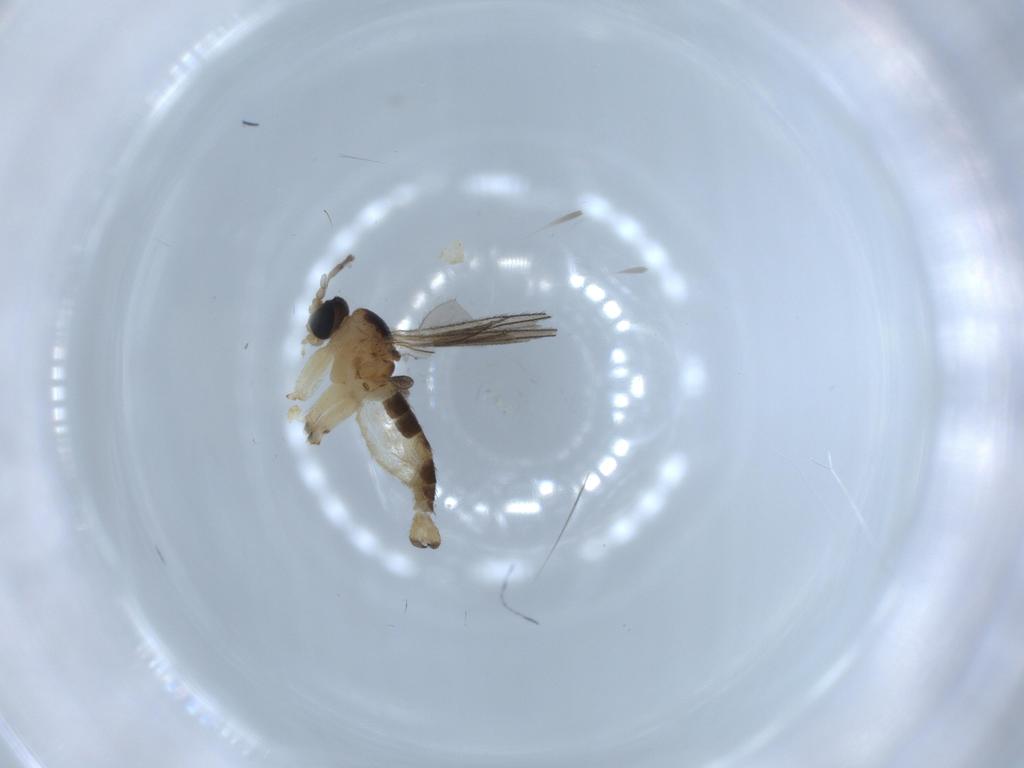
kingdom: Animalia
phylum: Arthropoda
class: Insecta
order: Diptera
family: Sciaridae
